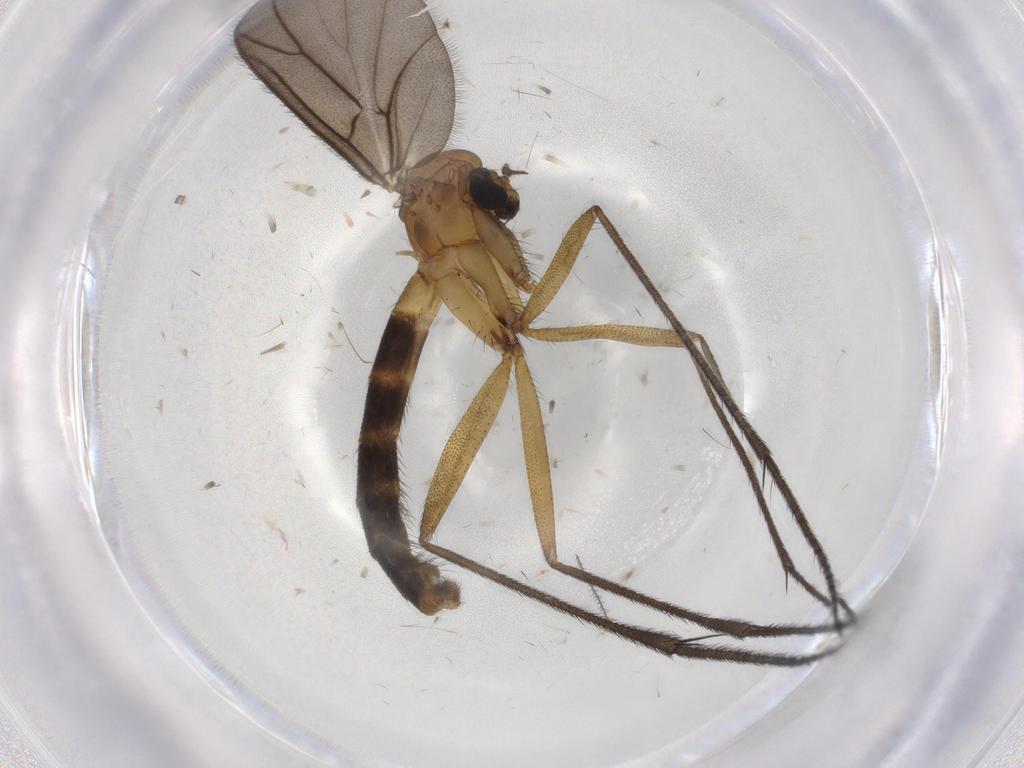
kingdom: Animalia
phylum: Arthropoda
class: Insecta
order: Diptera
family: Ditomyiidae
